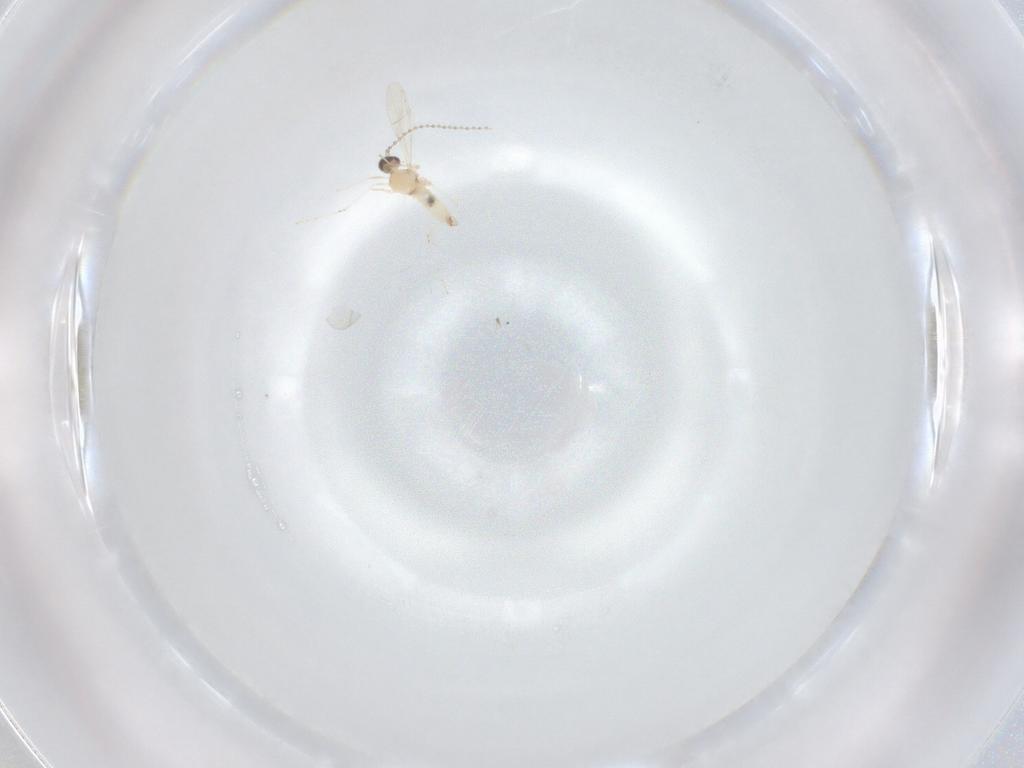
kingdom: Animalia
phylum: Arthropoda
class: Insecta
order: Diptera
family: Cecidomyiidae
